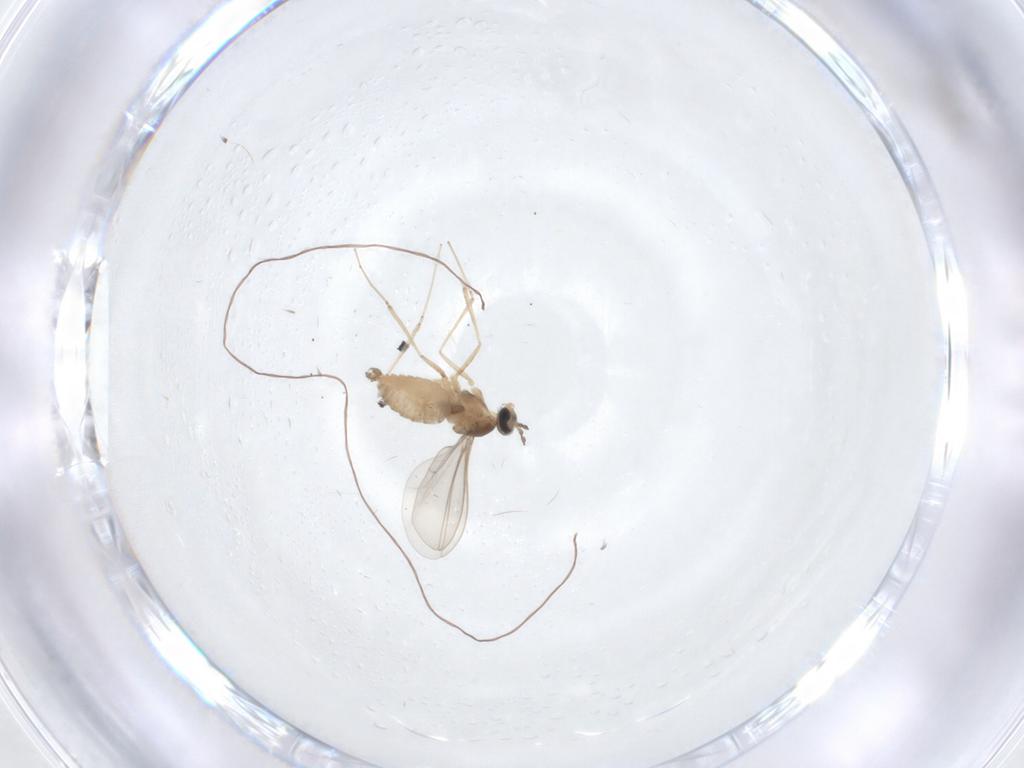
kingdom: Animalia
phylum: Arthropoda
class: Insecta
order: Diptera
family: Cecidomyiidae
